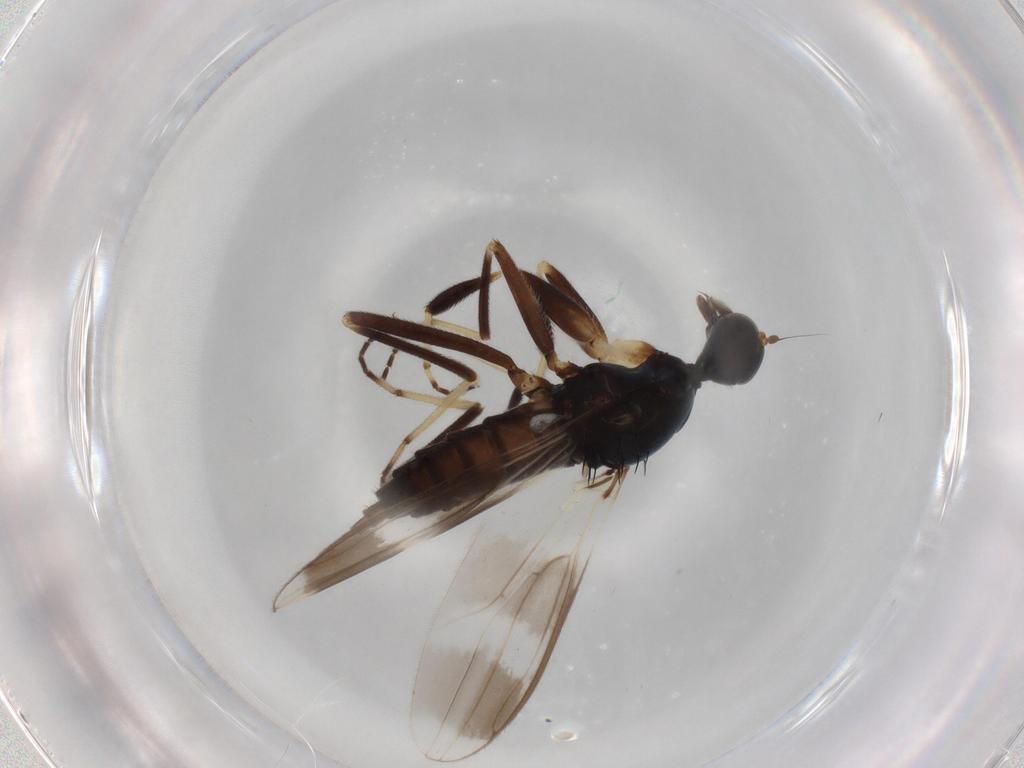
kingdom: Animalia
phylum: Arthropoda
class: Insecta
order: Diptera
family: Hybotidae
